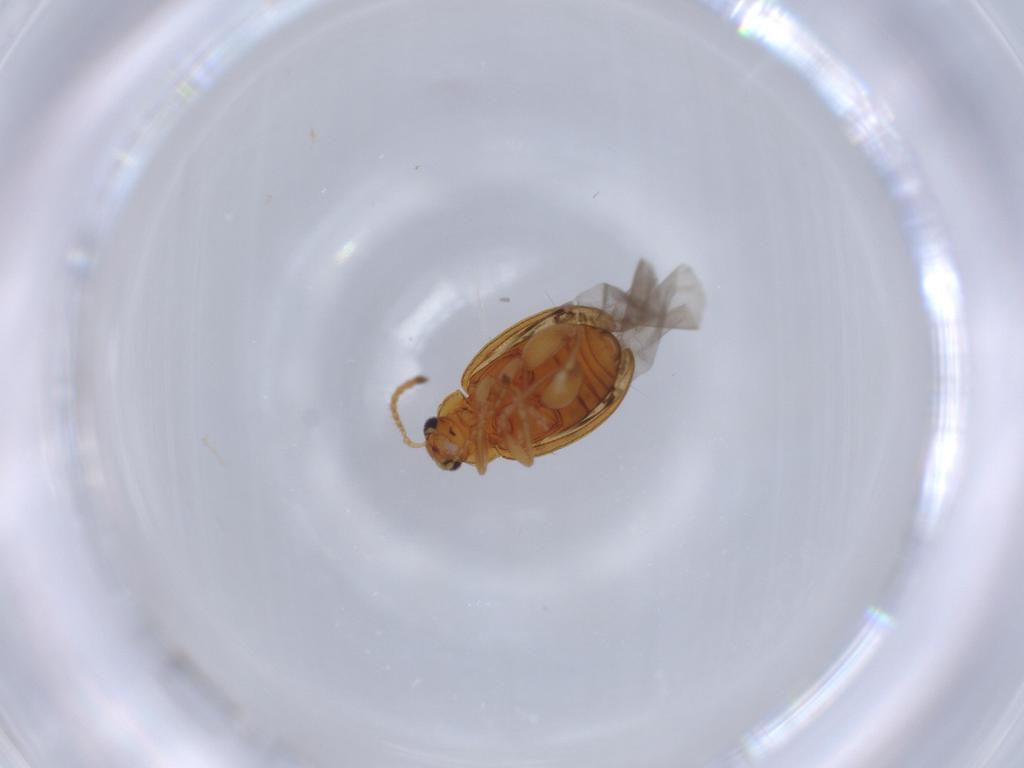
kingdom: Animalia
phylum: Arthropoda
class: Insecta
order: Coleoptera
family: Chrysomelidae
